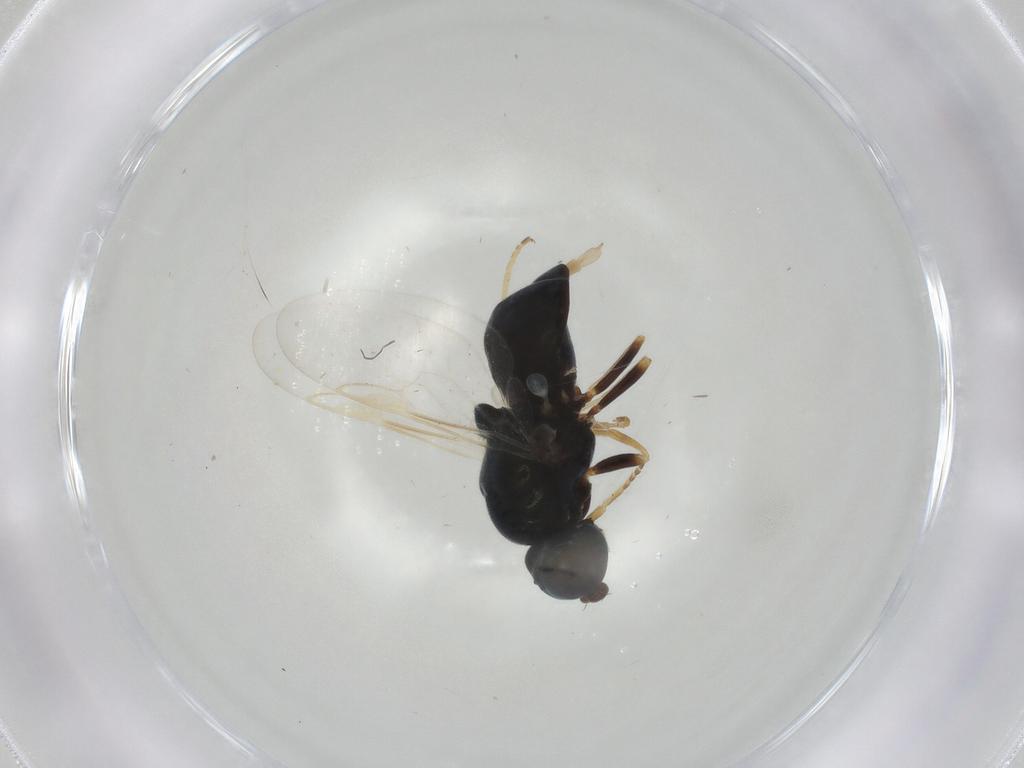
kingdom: Animalia
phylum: Arthropoda
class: Insecta
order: Diptera
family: Stratiomyidae
